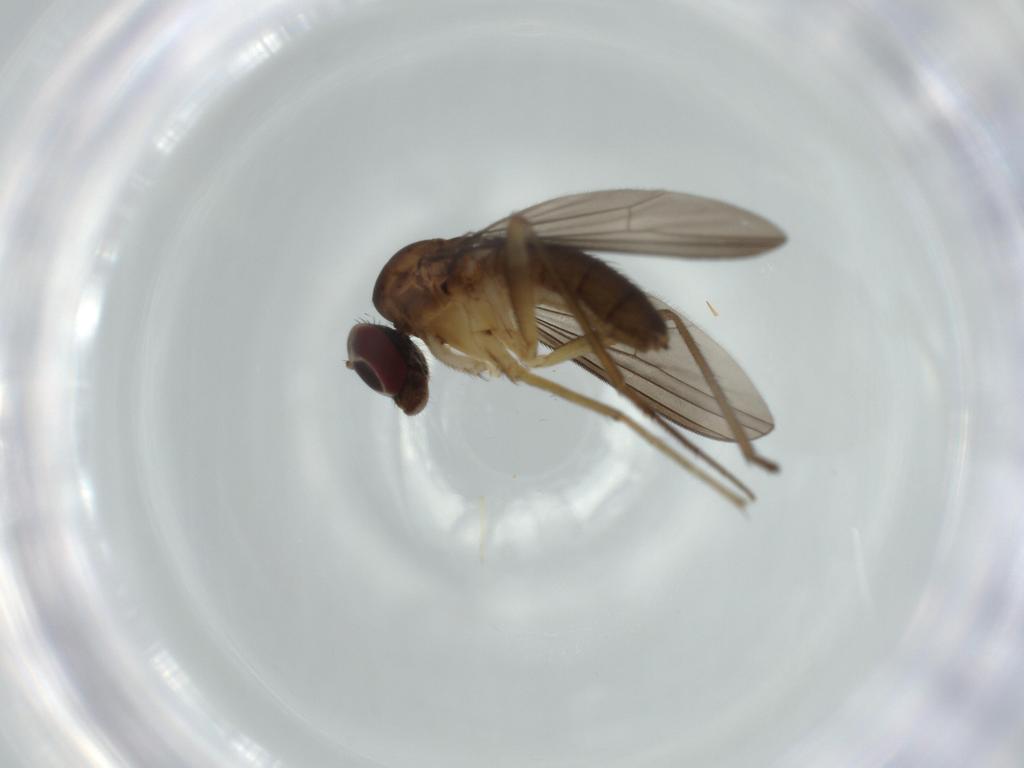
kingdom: Animalia
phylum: Arthropoda
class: Insecta
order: Diptera
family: Dolichopodidae
